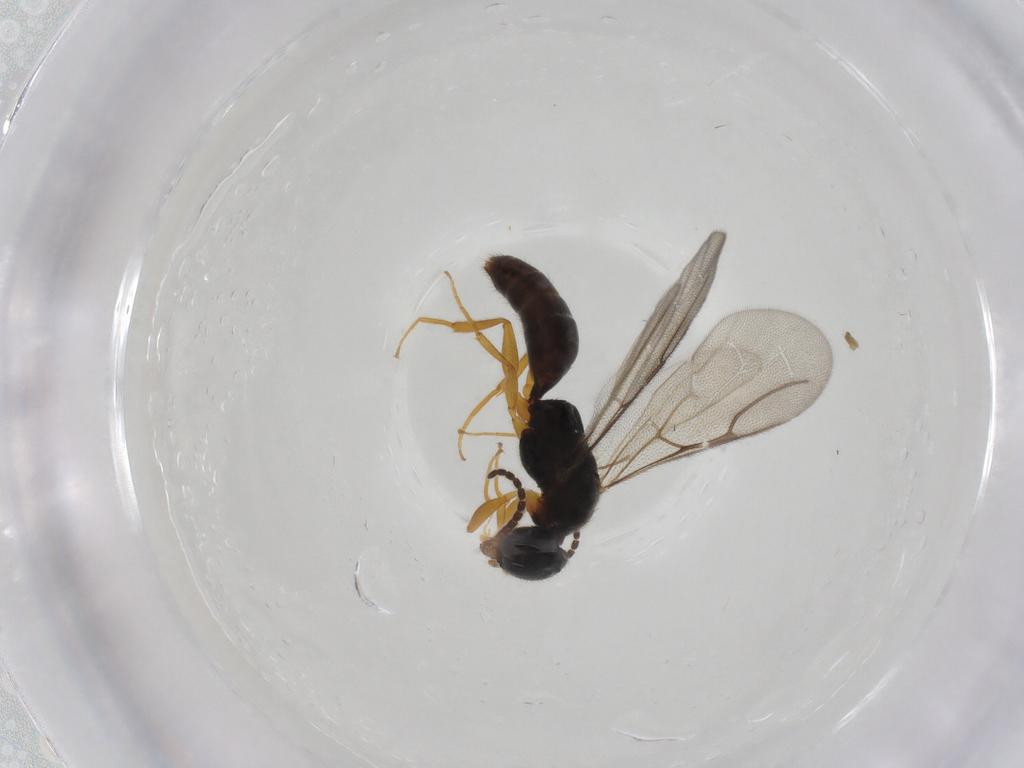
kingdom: Animalia
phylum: Arthropoda
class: Insecta
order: Hymenoptera
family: Bethylidae
